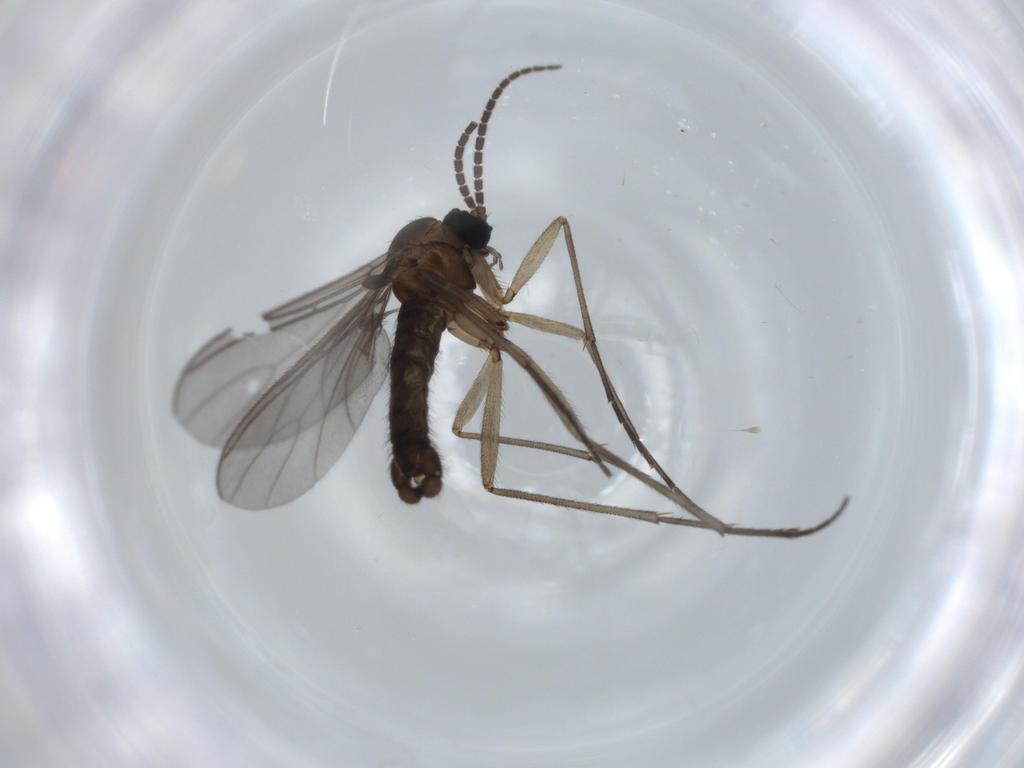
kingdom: Animalia
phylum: Arthropoda
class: Insecta
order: Diptera
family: Sciaridae
